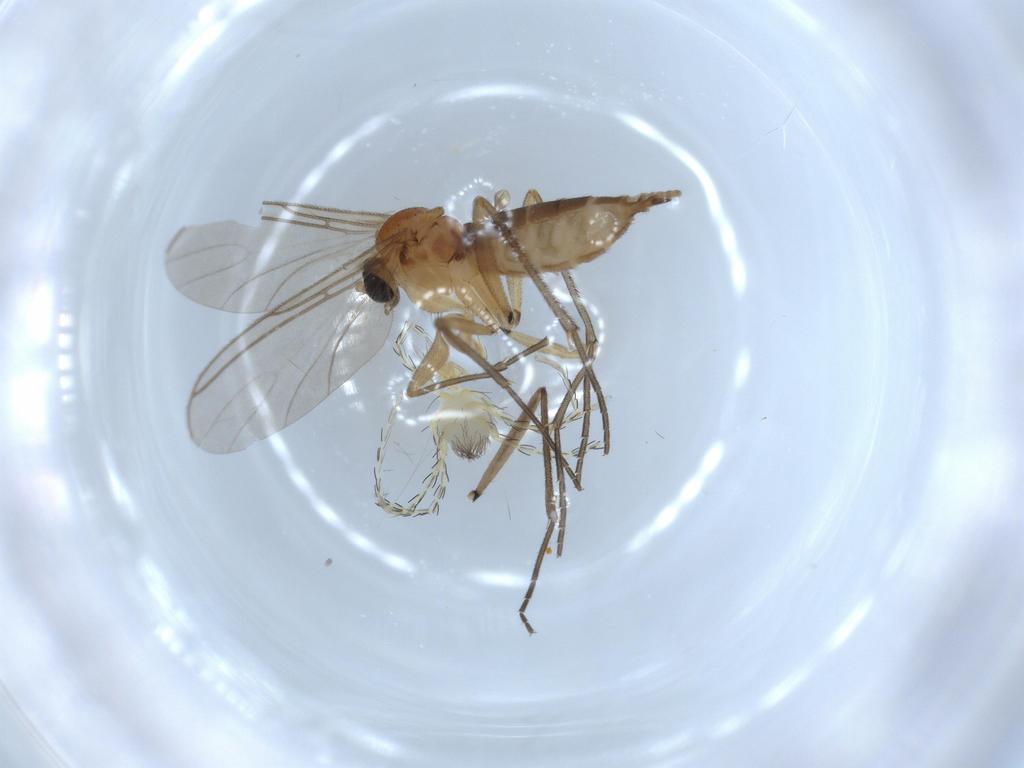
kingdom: Animalia
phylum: Arthropoda
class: Insecta
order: Diptera
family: Sciaridae
